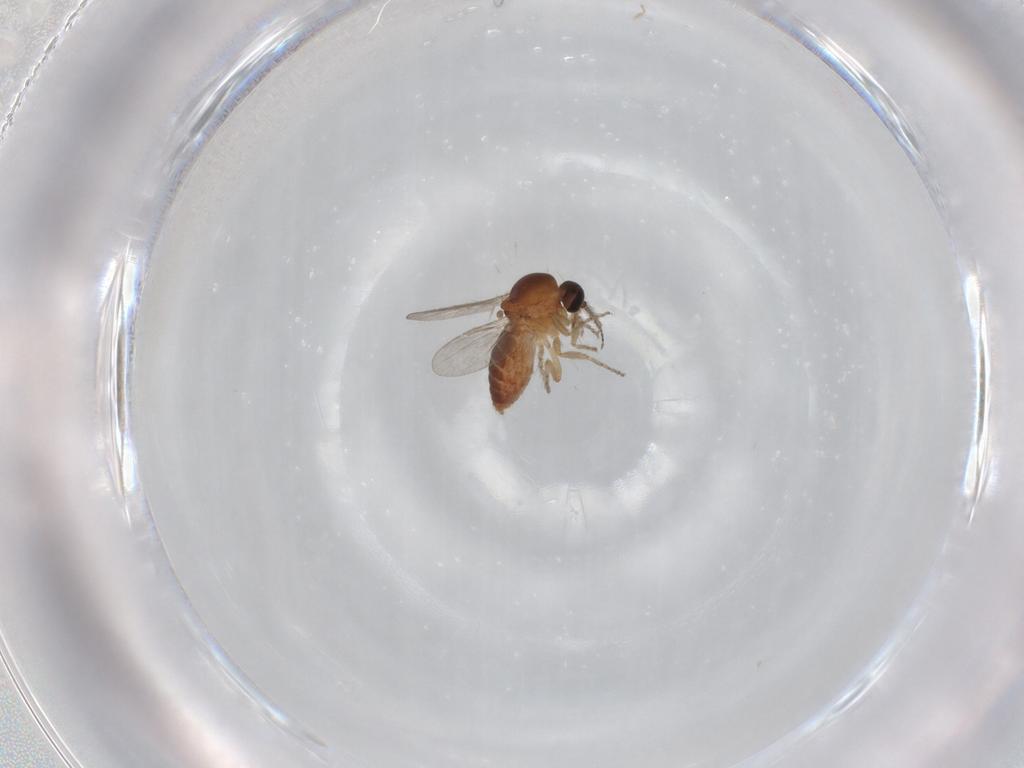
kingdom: Animalia
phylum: Arthropoda
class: Insecta
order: Diptera
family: Ceratopogonidae
